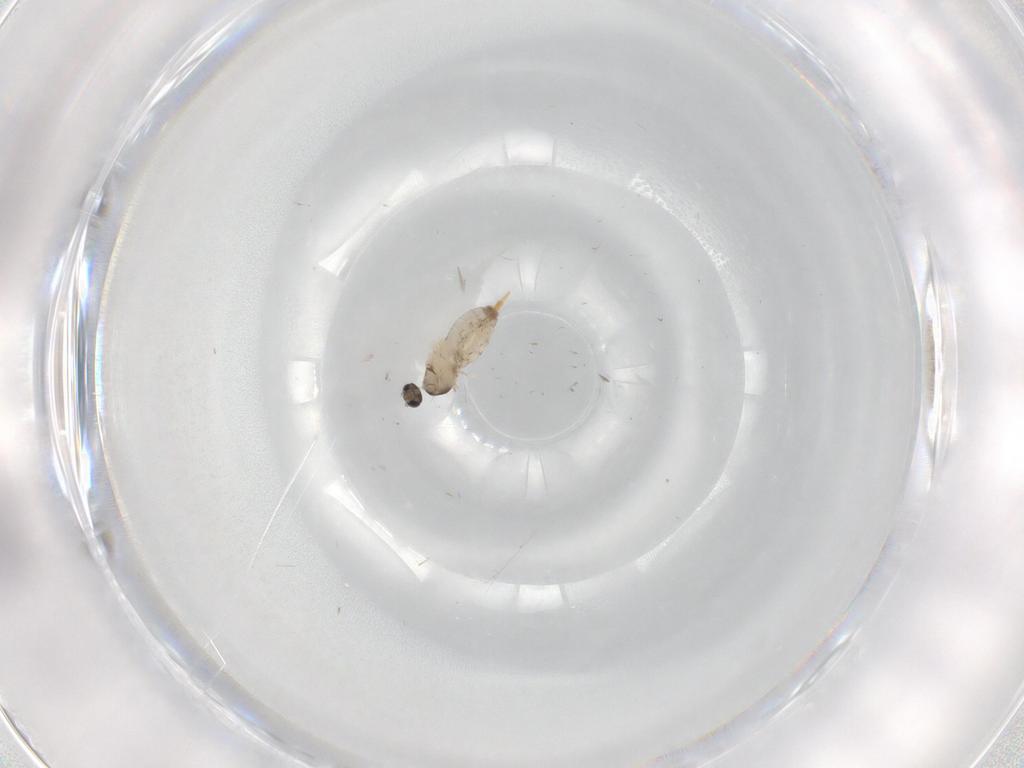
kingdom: Animalia
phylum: Arthropoda
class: Insecta
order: Diptera
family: Cecidomyiidae
